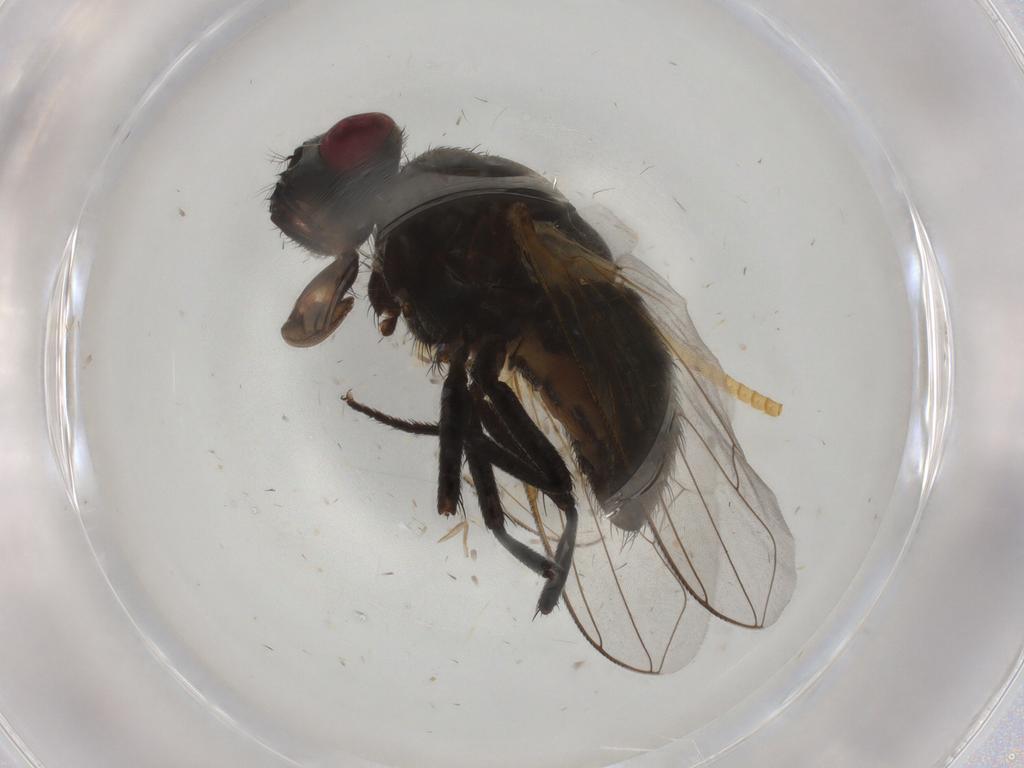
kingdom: Animalia
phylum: Arthropoda
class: Insecta
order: Diptera
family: Muscidae
